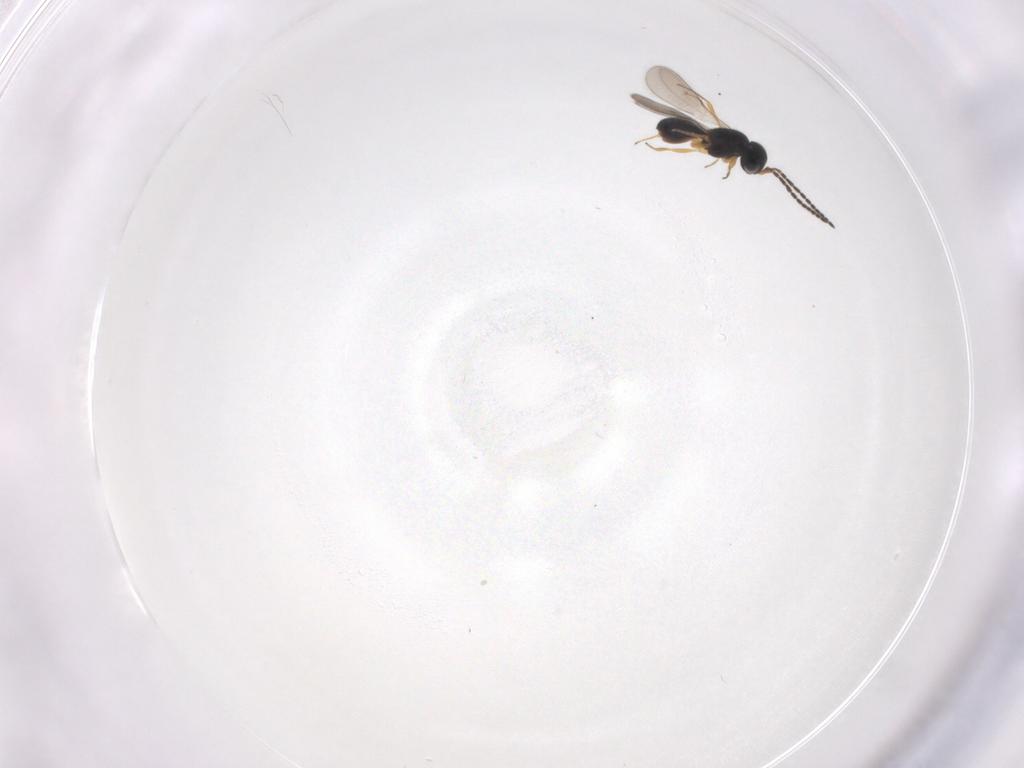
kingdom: Animalia
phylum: Arthropoda
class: Insecta
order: Hymenoptera
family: Scelionidae
